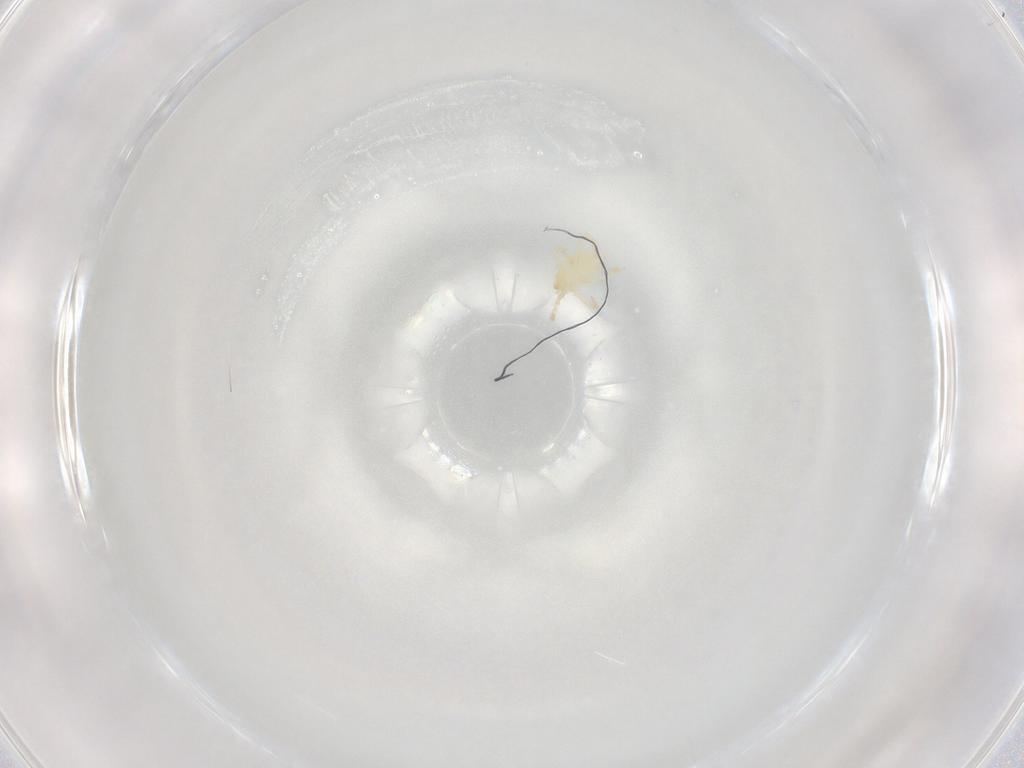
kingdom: Animalia
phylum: Arthropoda
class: Arachnida
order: Trombidiformes
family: Trombidiidae
